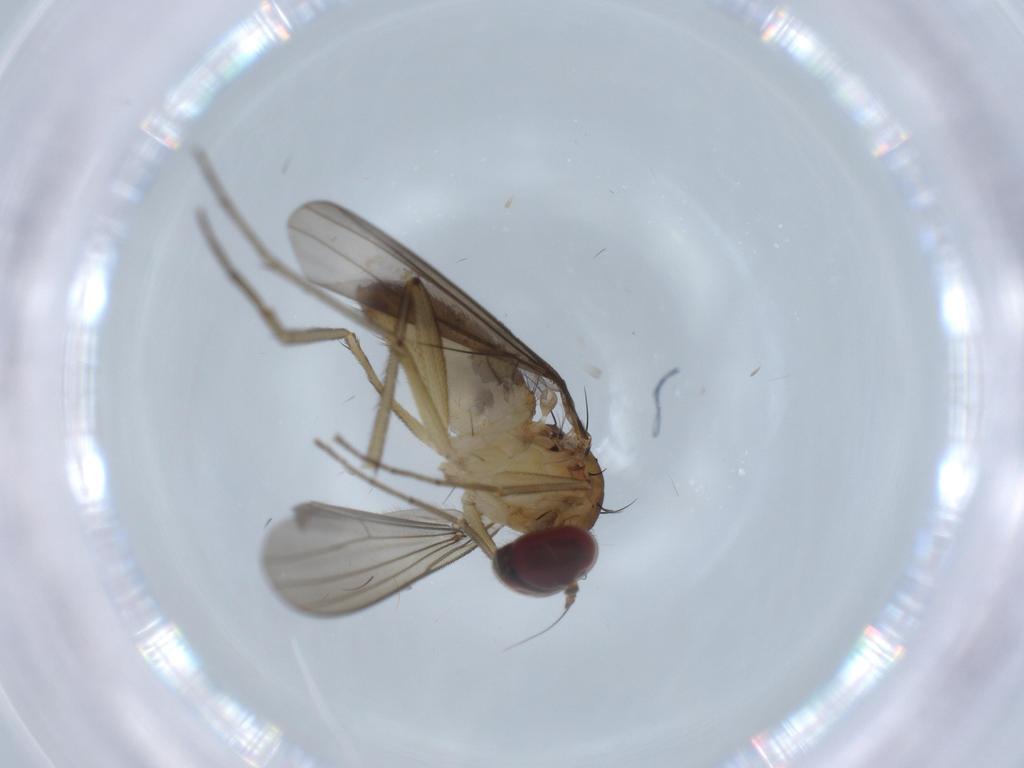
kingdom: Animalia
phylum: Arthropoda
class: Insecta
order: Diptera
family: Dolichopodidae
